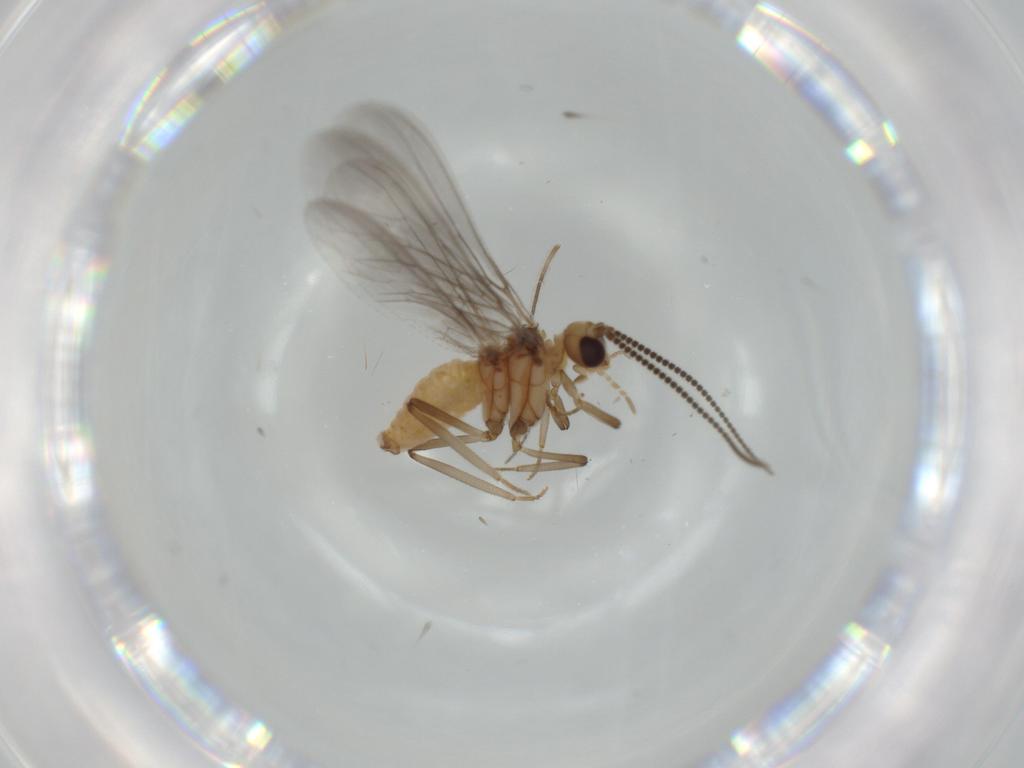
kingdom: Animalia
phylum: Arthropoda
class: Insecta
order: Neuroptera
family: Coniopterygidae
